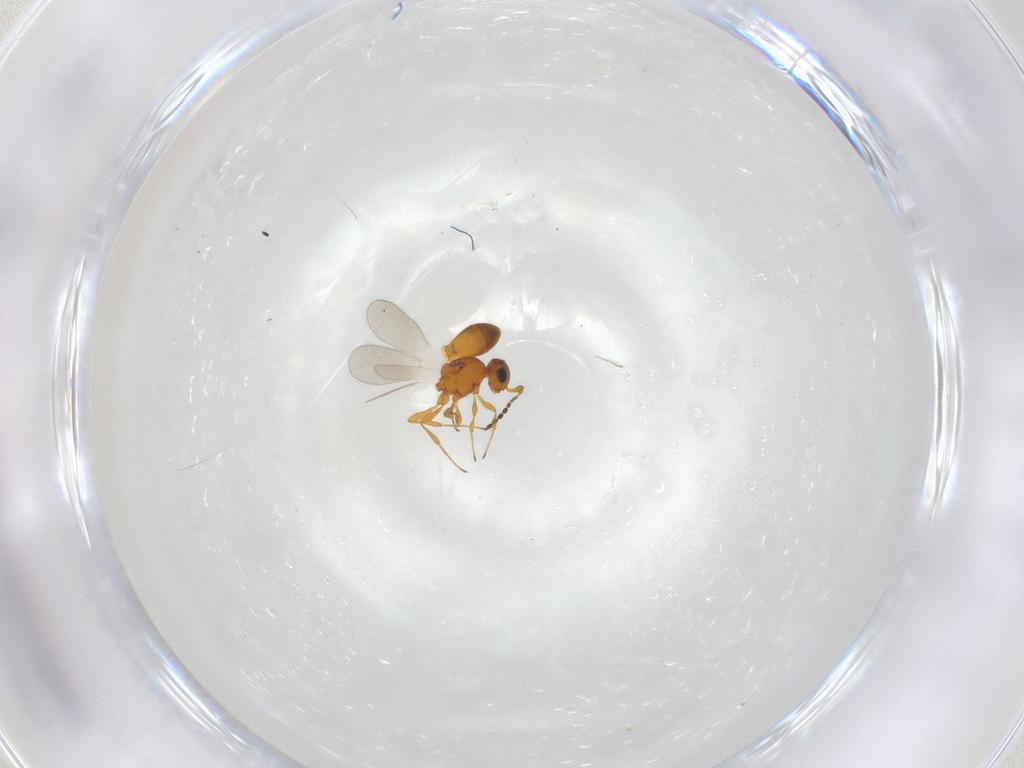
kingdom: Animalia
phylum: Arthropoda
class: Insecta
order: Hymenoptera
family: Platygastridae
